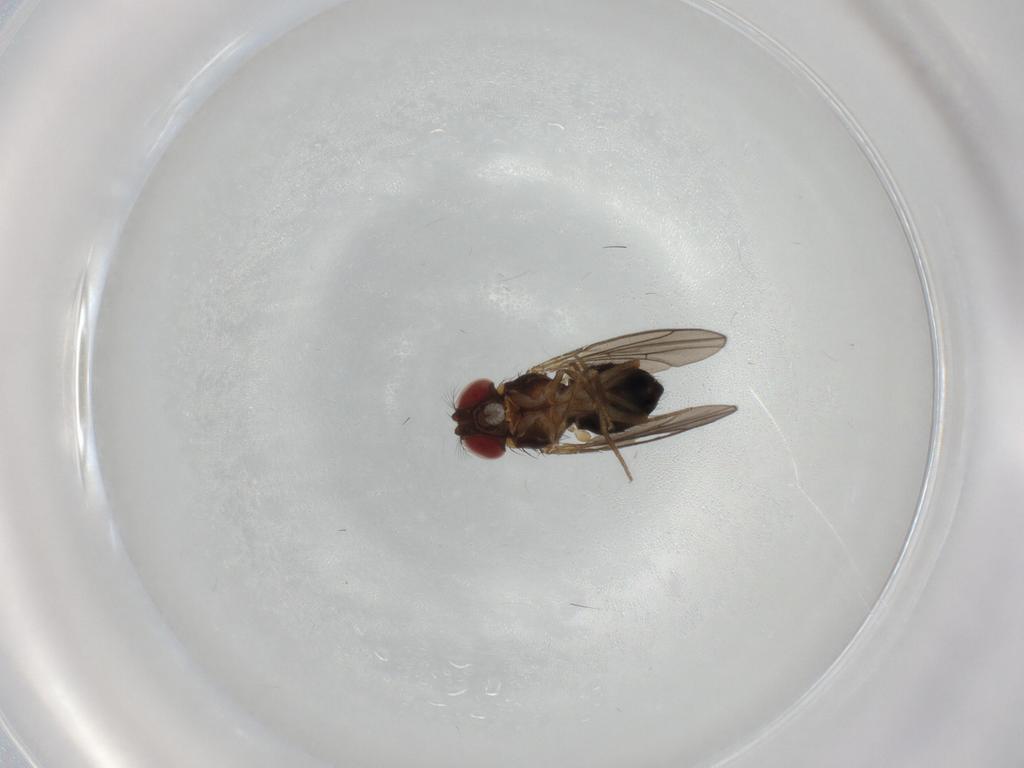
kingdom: Animalia
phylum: Arthropoda
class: Insecta
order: Diptera
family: Drosophilidae
